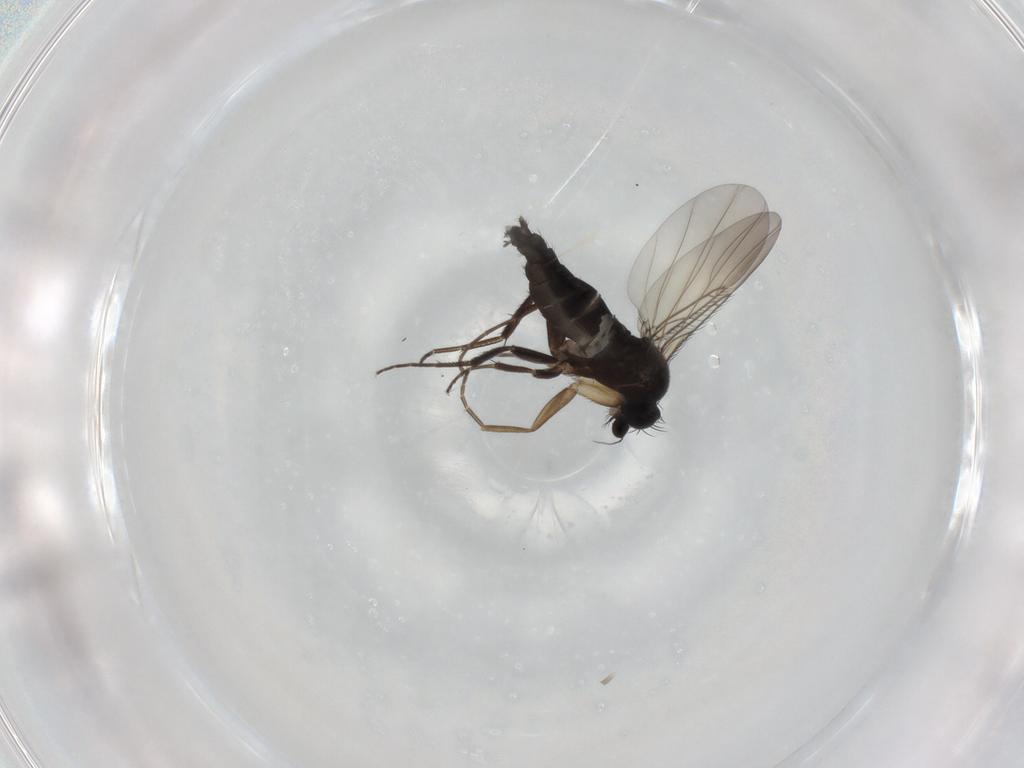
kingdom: Animalia
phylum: Arthropoda
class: Insecta
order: Diptera
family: Phoridae
